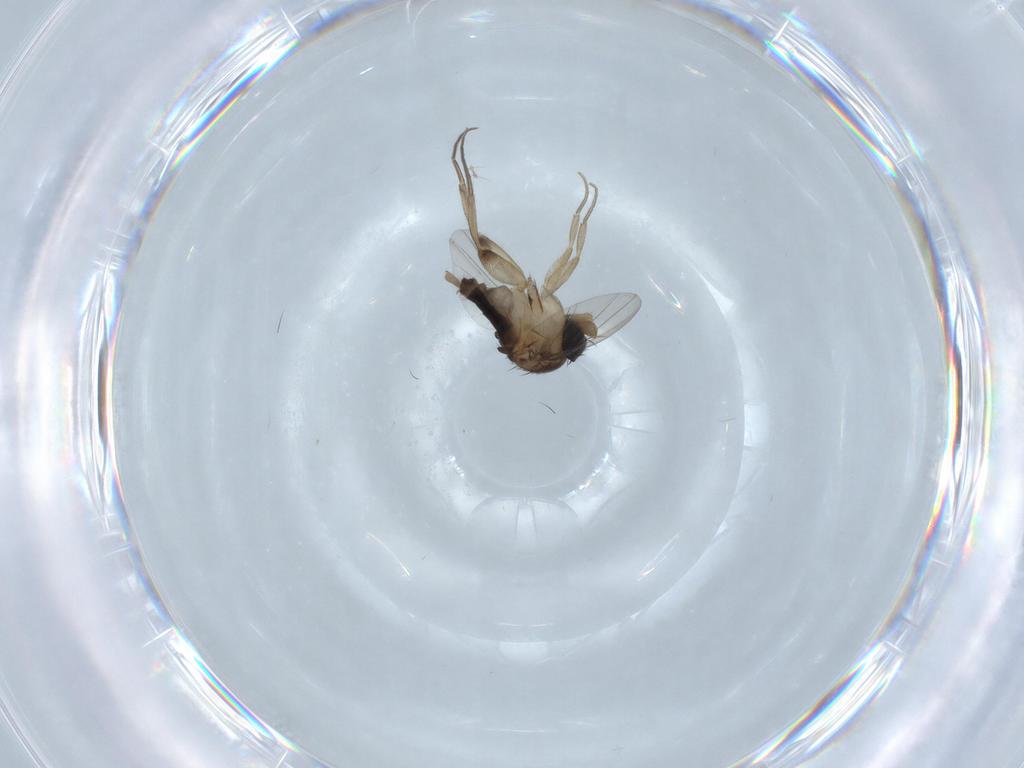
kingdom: Animalia
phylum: Arthropoda
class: Insecta
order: Diptera
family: Phoridae
